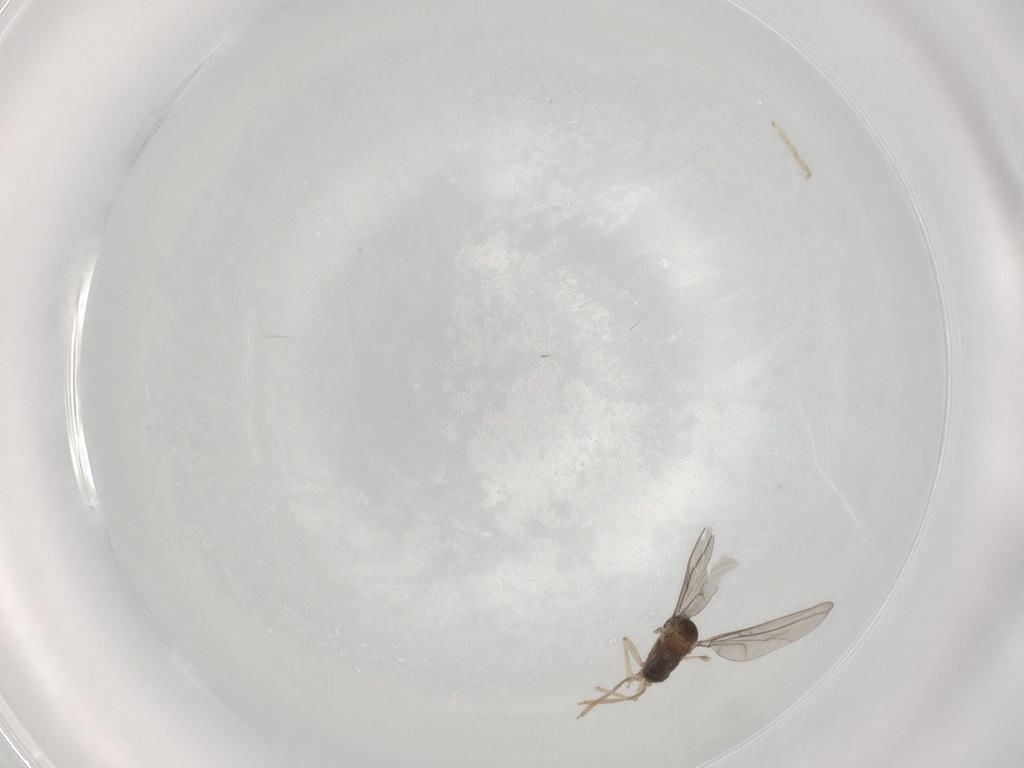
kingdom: Animalia
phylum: Arthropoda
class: Insecta
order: Diptera
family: Cecidomyiidae
